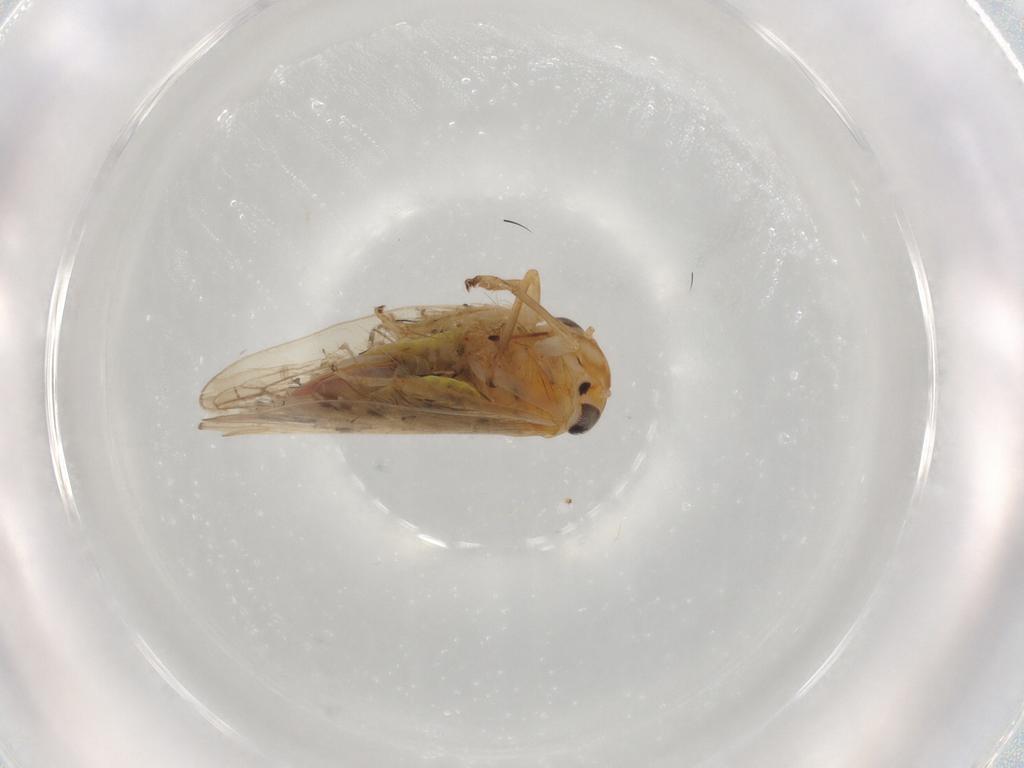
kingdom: Animalia
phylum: Arthropoda
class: Insecta
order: Hemiptera
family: Cicadellidae
